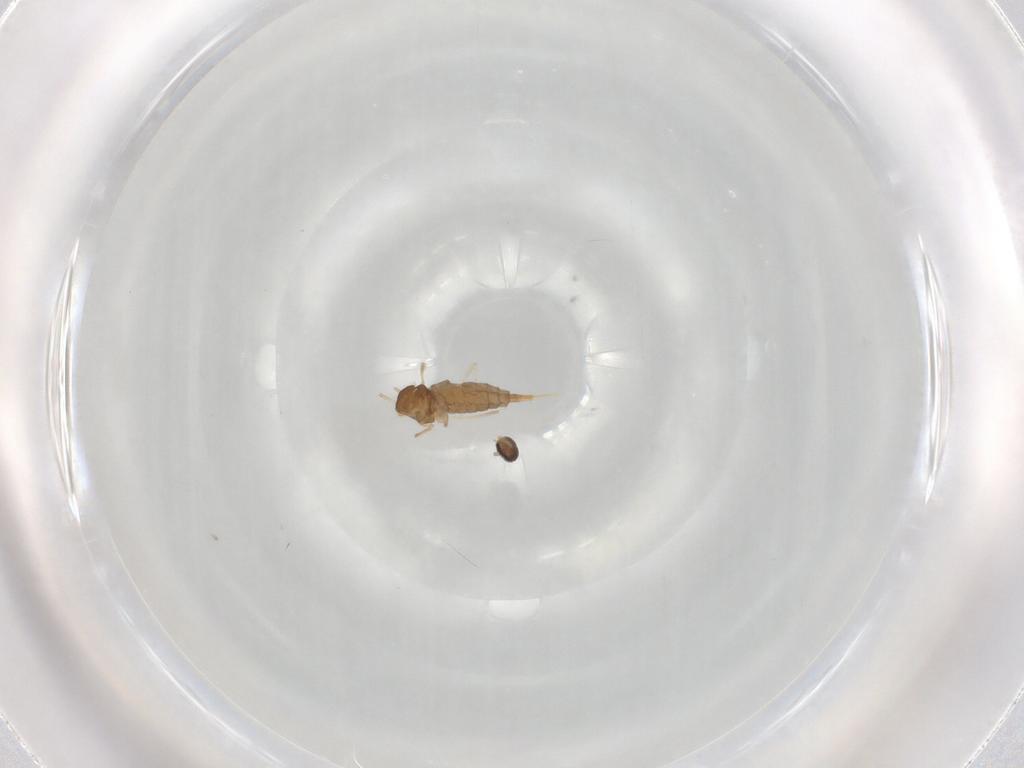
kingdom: Animalia
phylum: Arthropoda
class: Insecta
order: Diptera
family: Cecidomyiidae
